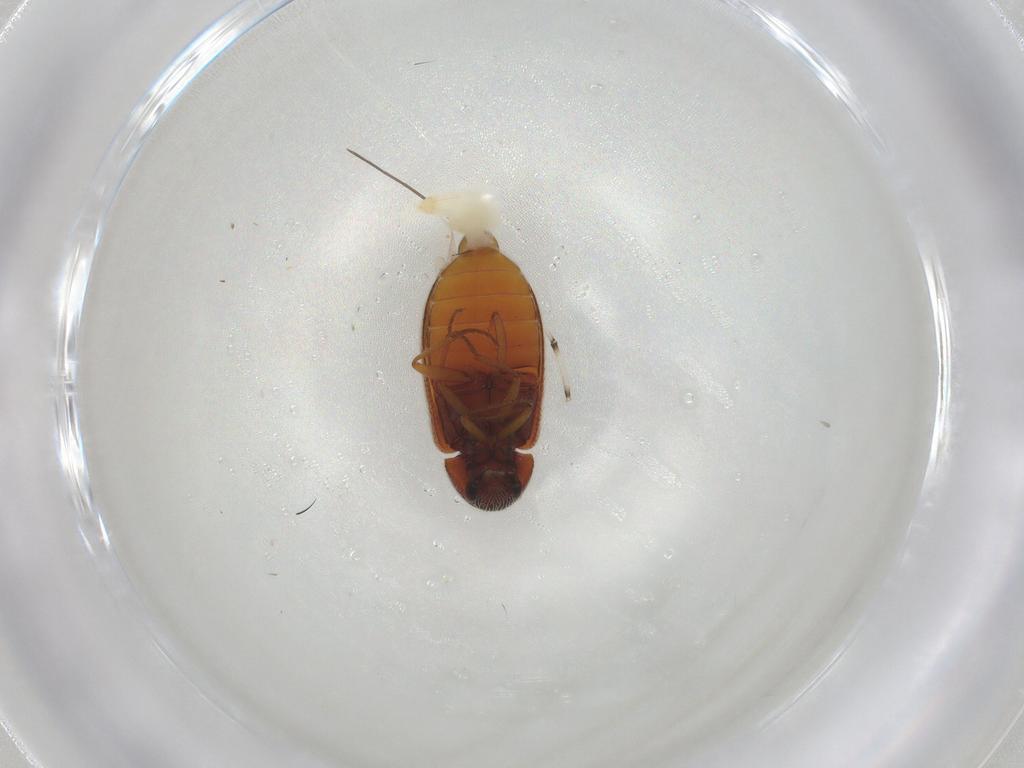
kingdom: Animalia
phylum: Arthropoda
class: Insecta
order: Coleoptera
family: Rhadalidae
